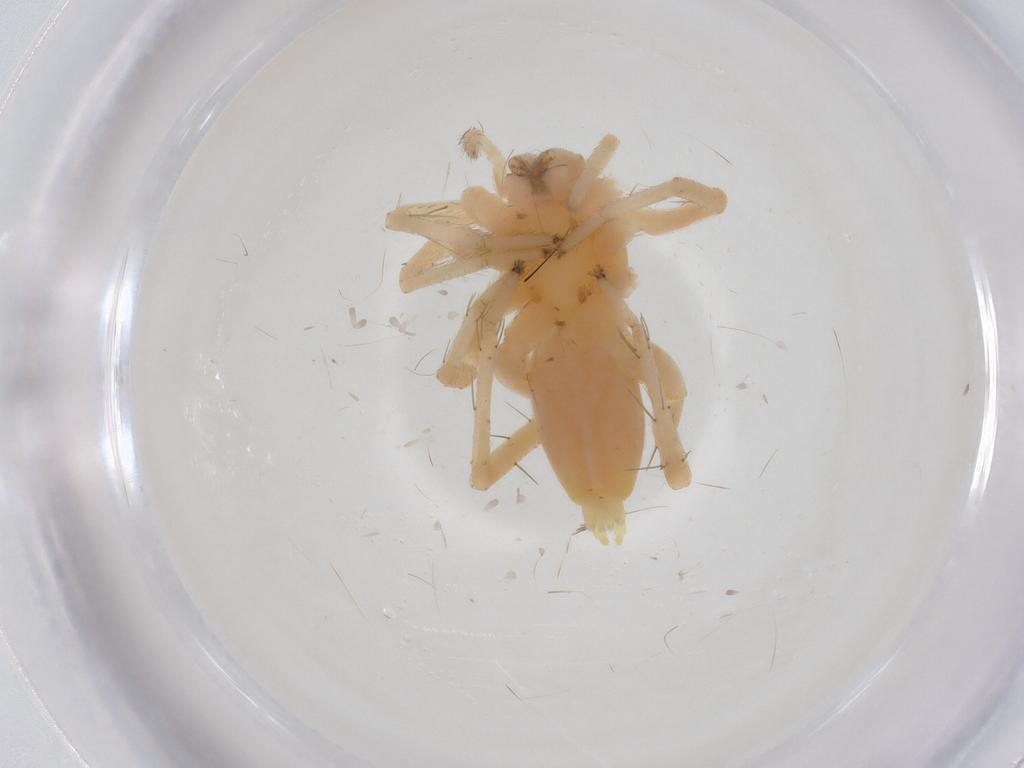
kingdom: Animalia
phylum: Arthropoda
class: Arachnida
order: Araneae
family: Anyphaenidae
